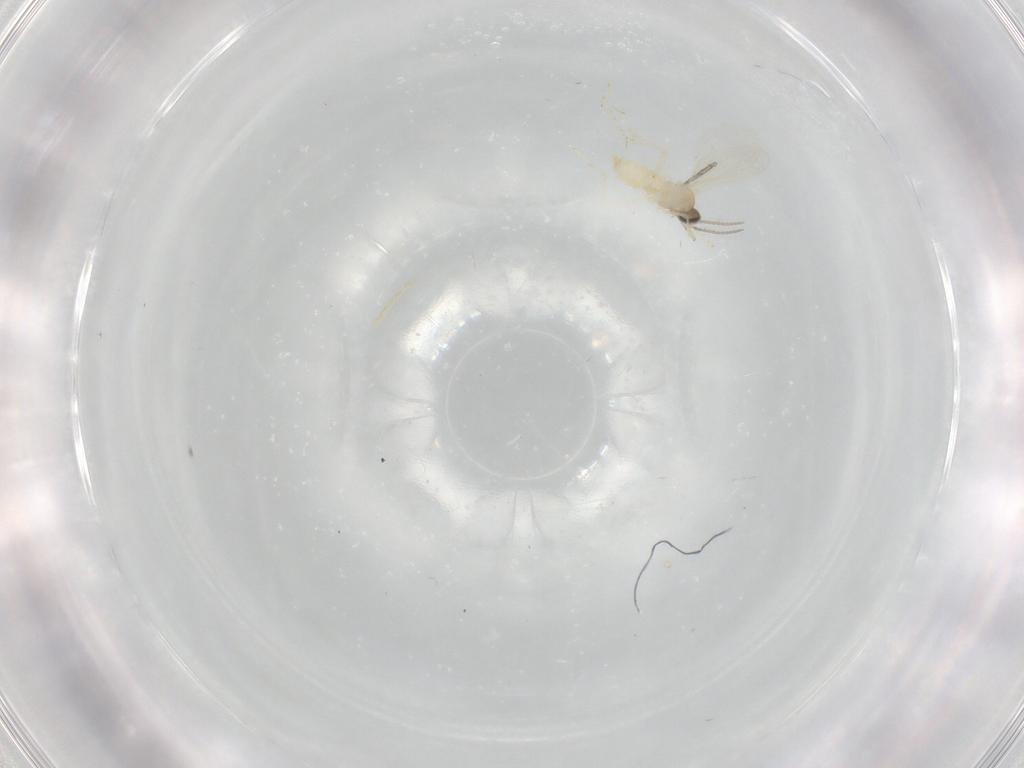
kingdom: Animalia
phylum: Arthropoda
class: Insecta
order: Diptera
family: Cecidomyiidae
